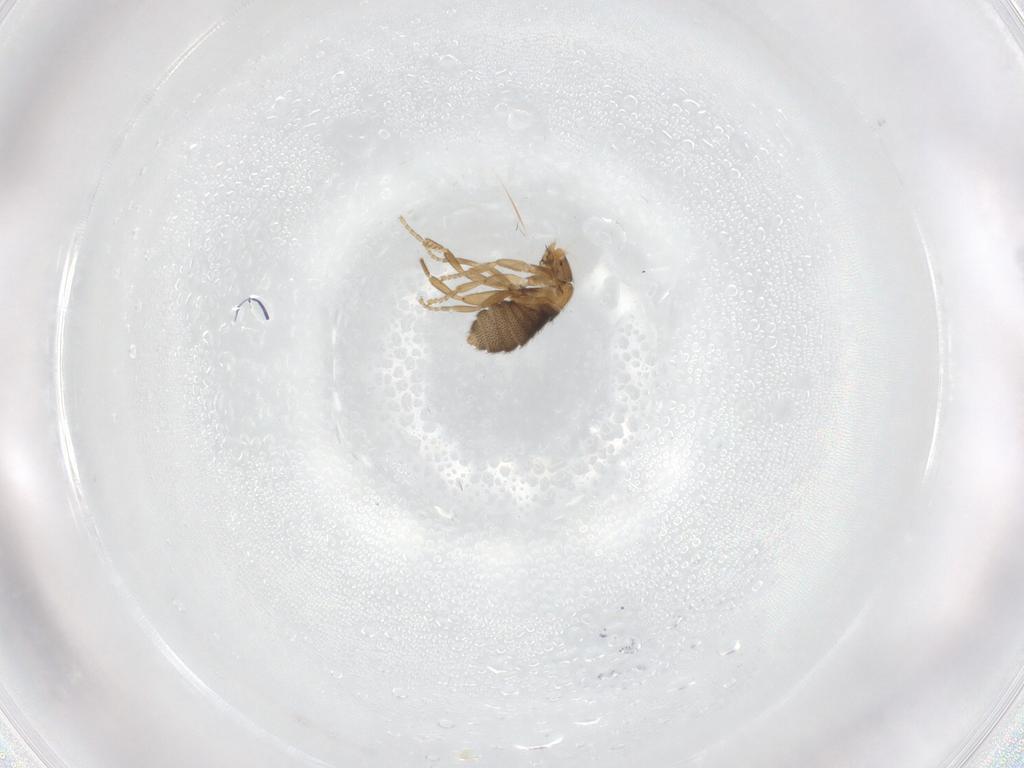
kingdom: Animalia
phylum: Arthropoda
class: Insecta
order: Diptera
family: Phoridae
